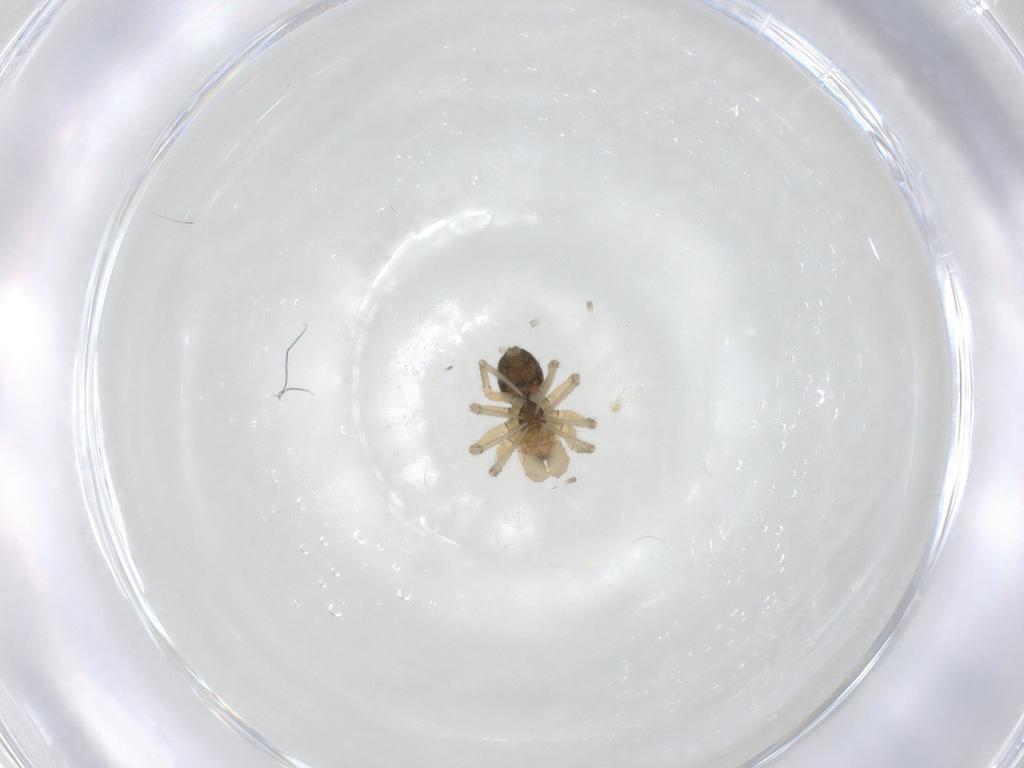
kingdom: Animalia
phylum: Arthropoda
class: Arachnida
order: Araneae
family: Linyphiidae
